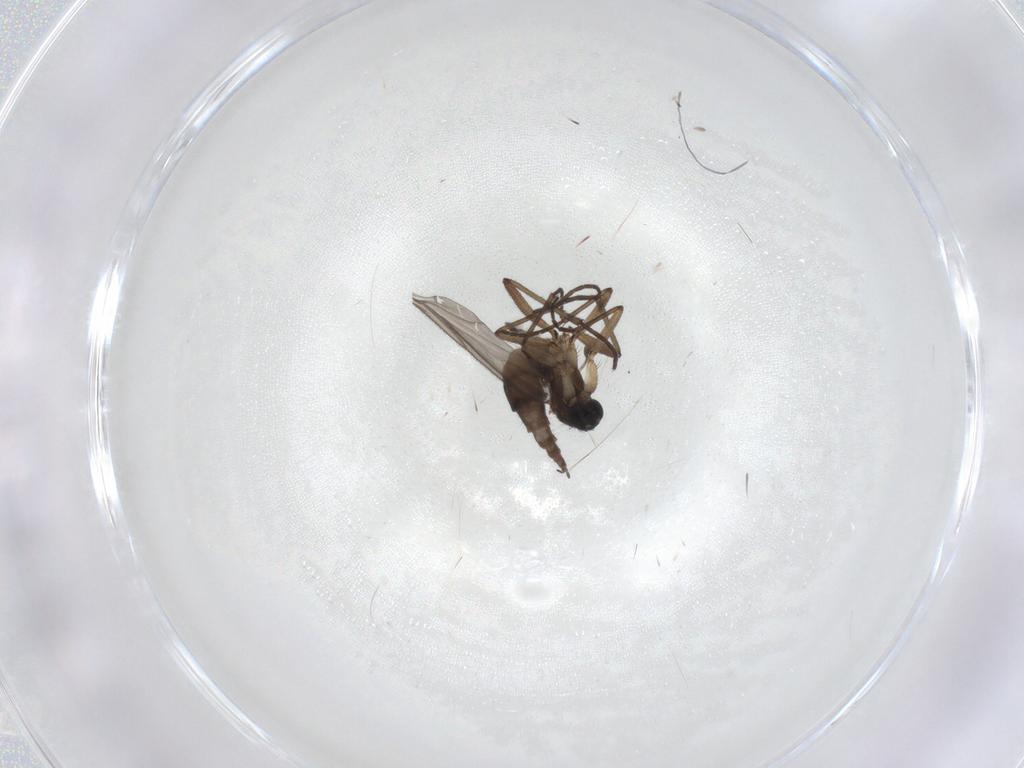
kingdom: Animalia
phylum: Arthropoda
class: Insecta
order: Diptera
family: Sciaridae
